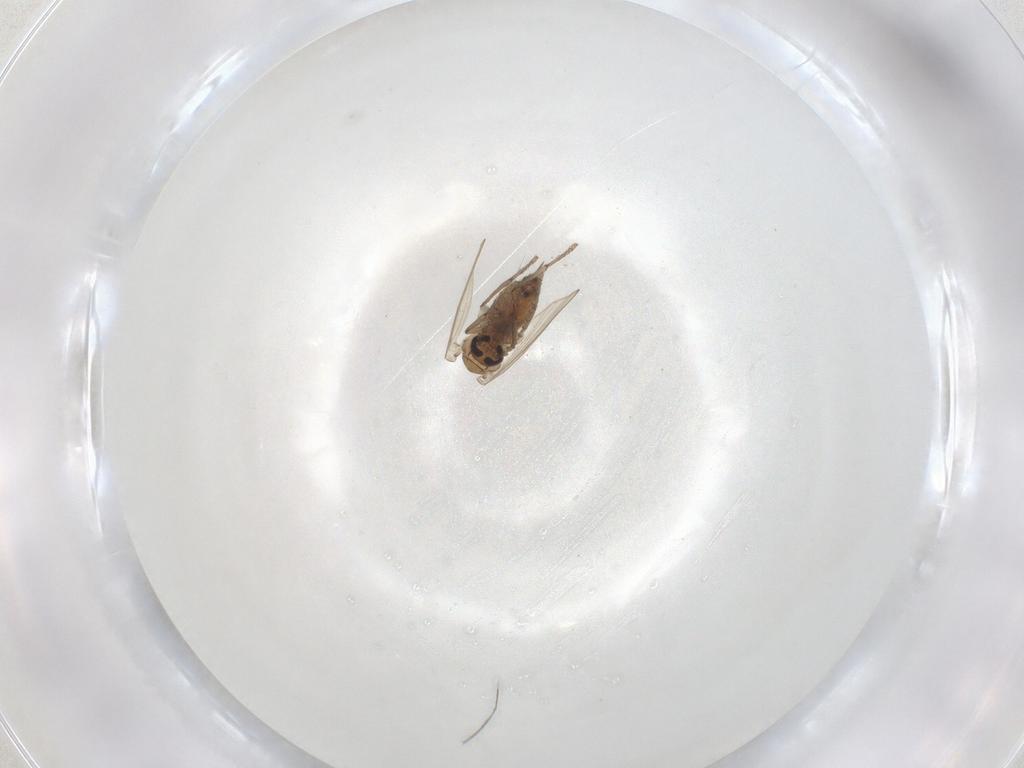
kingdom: Animalia
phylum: Arthropoda
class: Insecta
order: Diptera
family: Psychodidae
